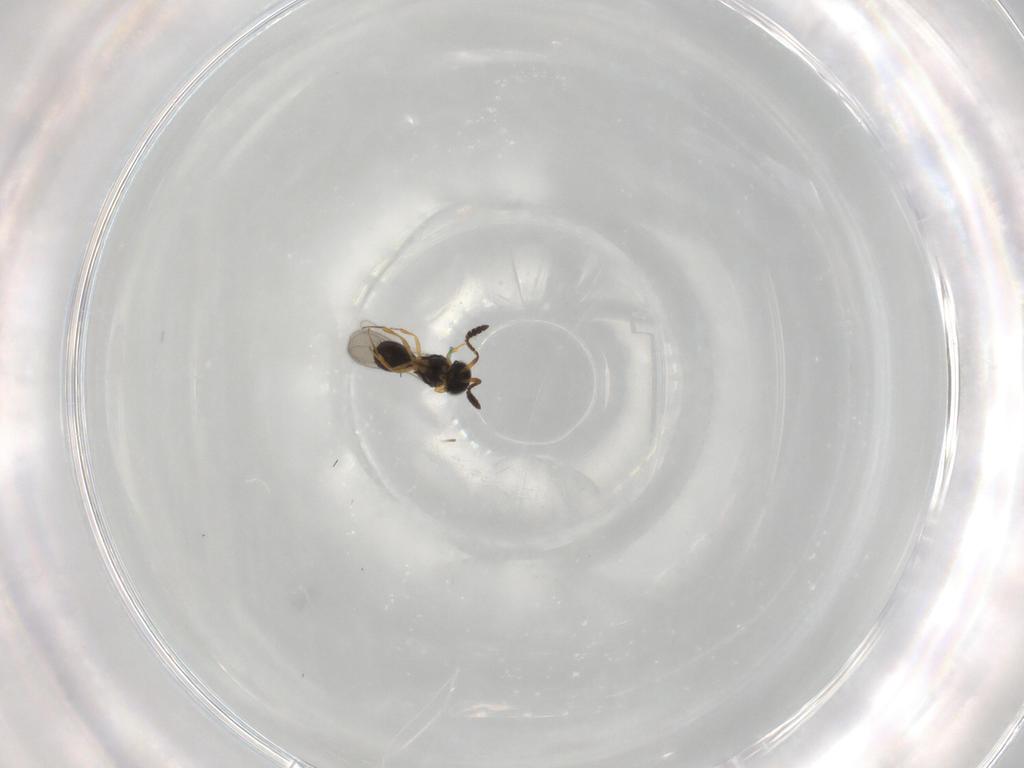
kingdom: Animalia
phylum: Arthropoda
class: Insecta
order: Hymenoptera
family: Scelionidae
